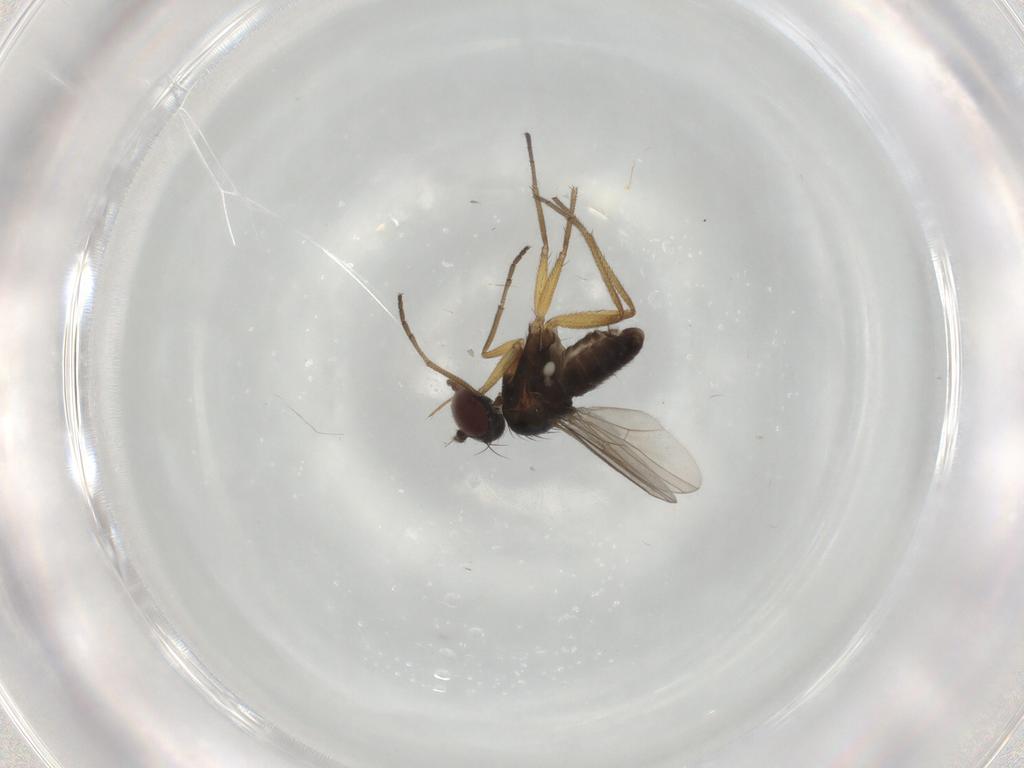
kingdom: Animalia
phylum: Arthropoda
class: Insecta
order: Diptera
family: Dolichopodidae
